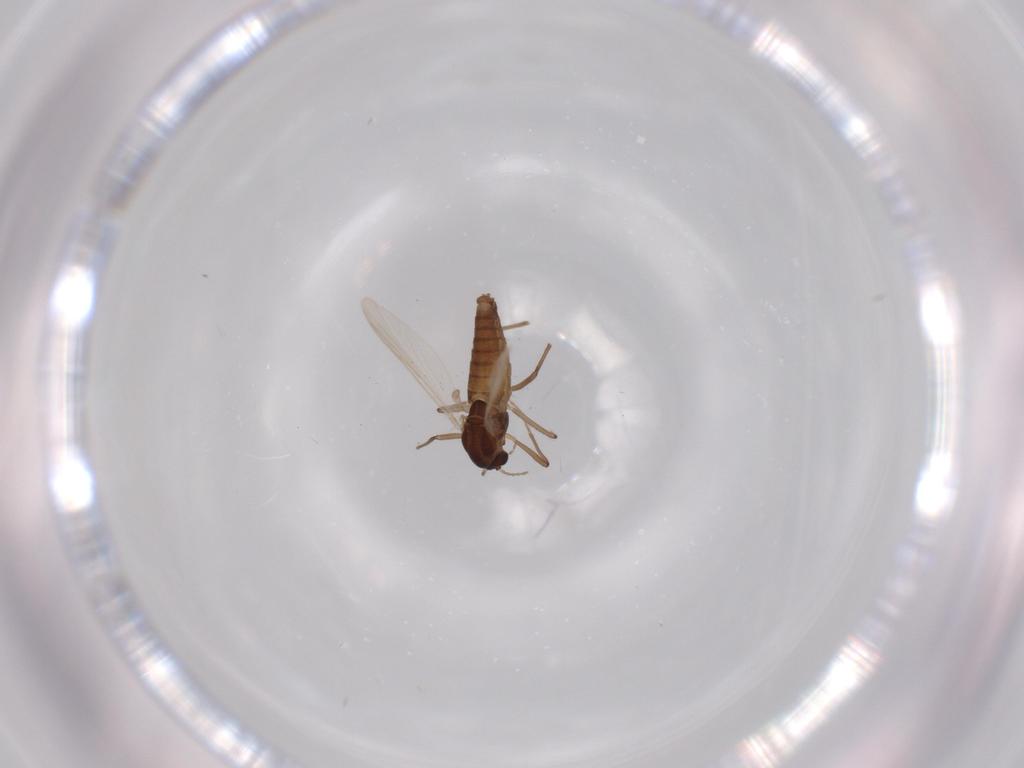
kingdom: Animalia
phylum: Arthropoda
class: Insecta
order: Diptera
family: Chironomidae
